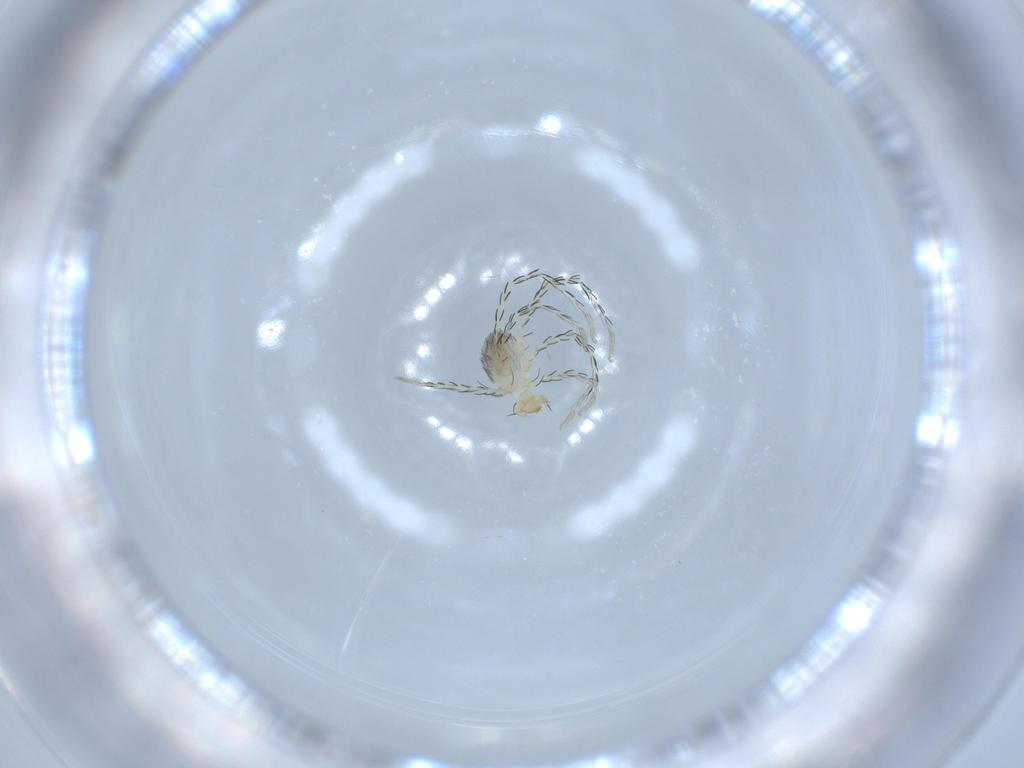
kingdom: Animalia
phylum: Arthropoda
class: Arachnida
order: Trombidiformes
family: Erythraeidae
